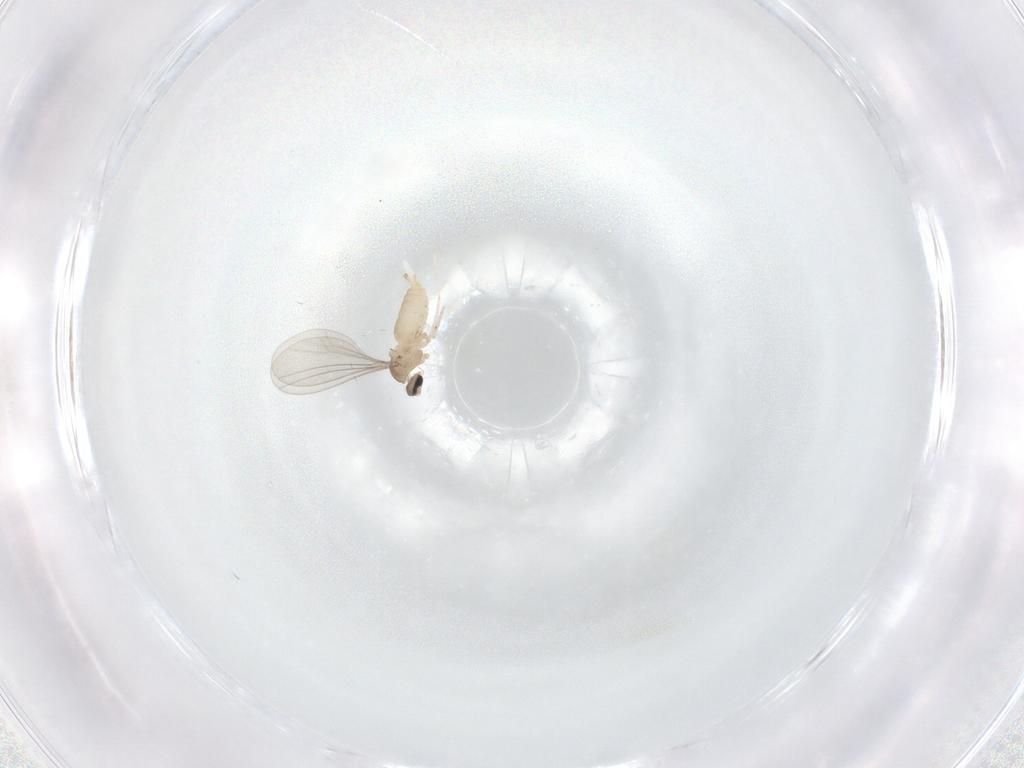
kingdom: Animalia
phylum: Arthropoda
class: Insecta
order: Diptera
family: Cecidomyiidae
